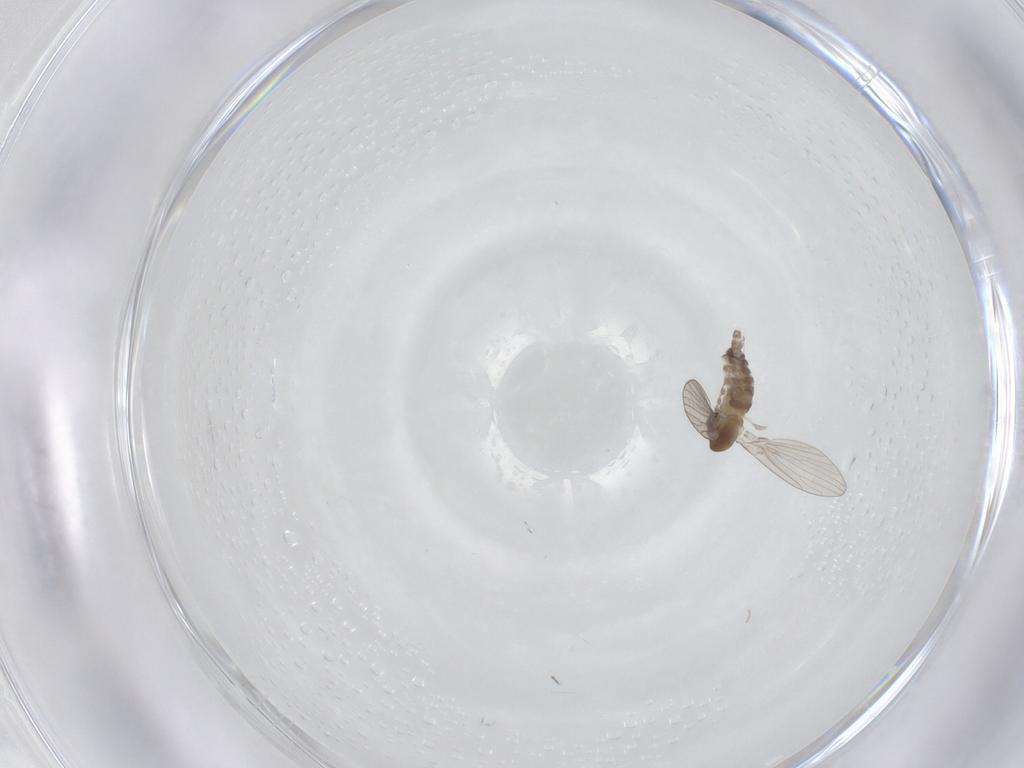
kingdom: Animalia
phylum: Arthropoda
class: Insecta
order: Diptera
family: Cecidomyiidae
